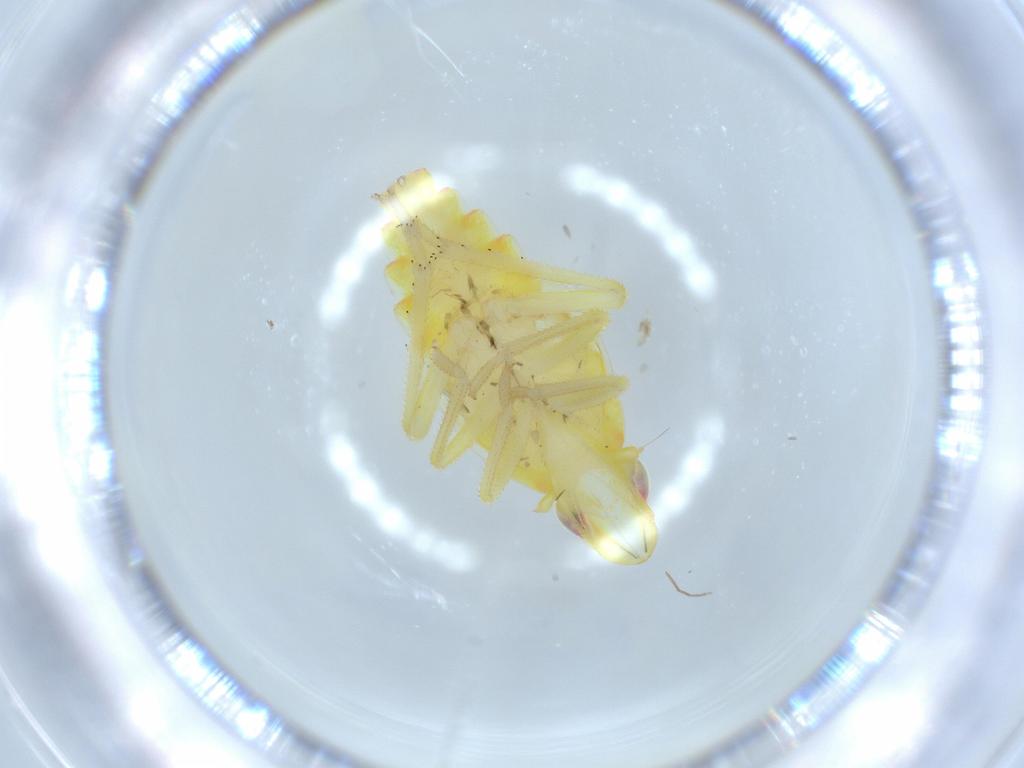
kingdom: Animalia
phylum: Arthropoda
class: Insecta
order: Hemiptera
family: Tropiduchidae
